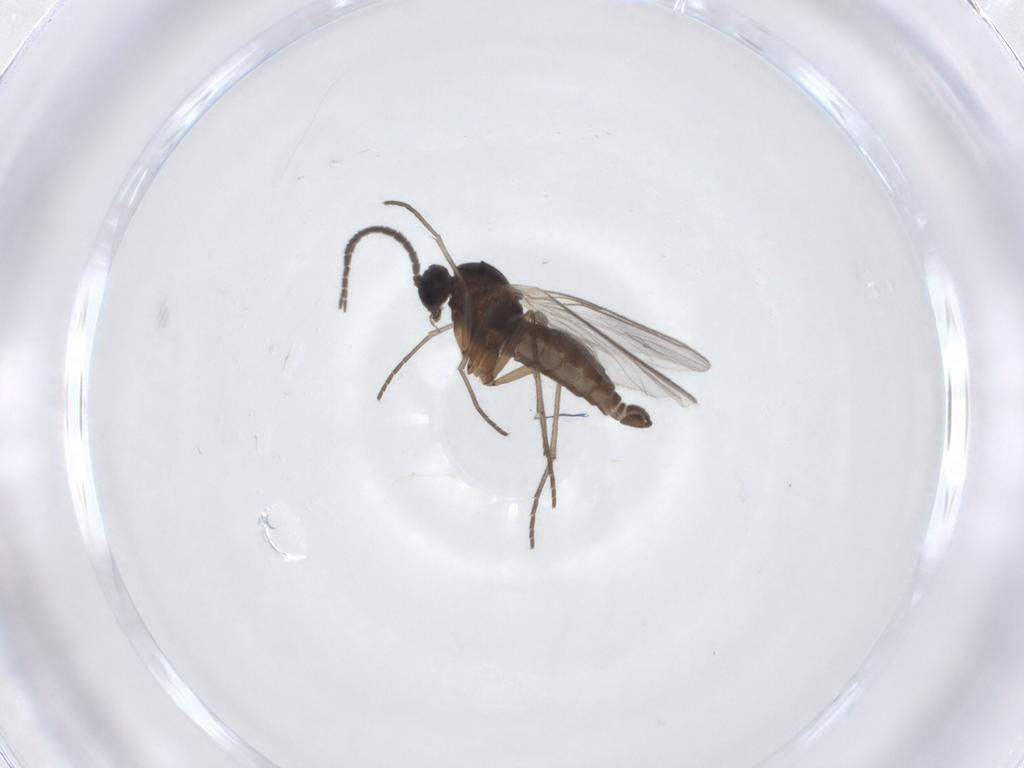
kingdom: Animalia
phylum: Arthropoda
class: Insecta
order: Diptera
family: Sciaridae
